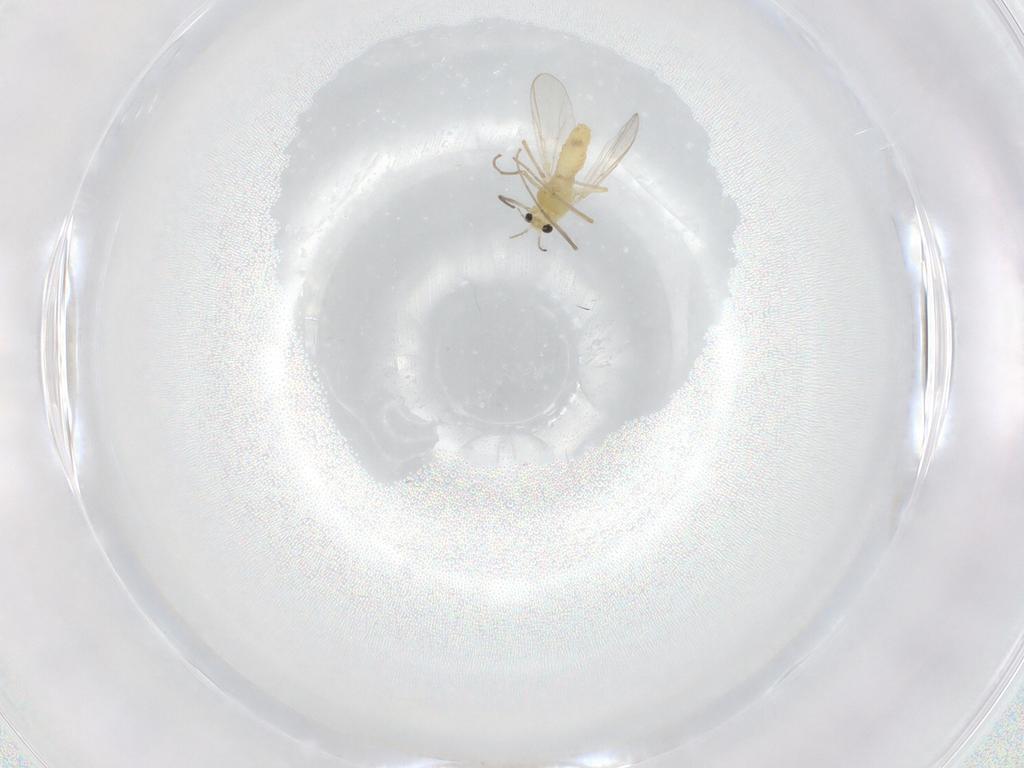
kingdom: Animalia
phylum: Arthropoda
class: Insecta
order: Diptera
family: Chironomidae
